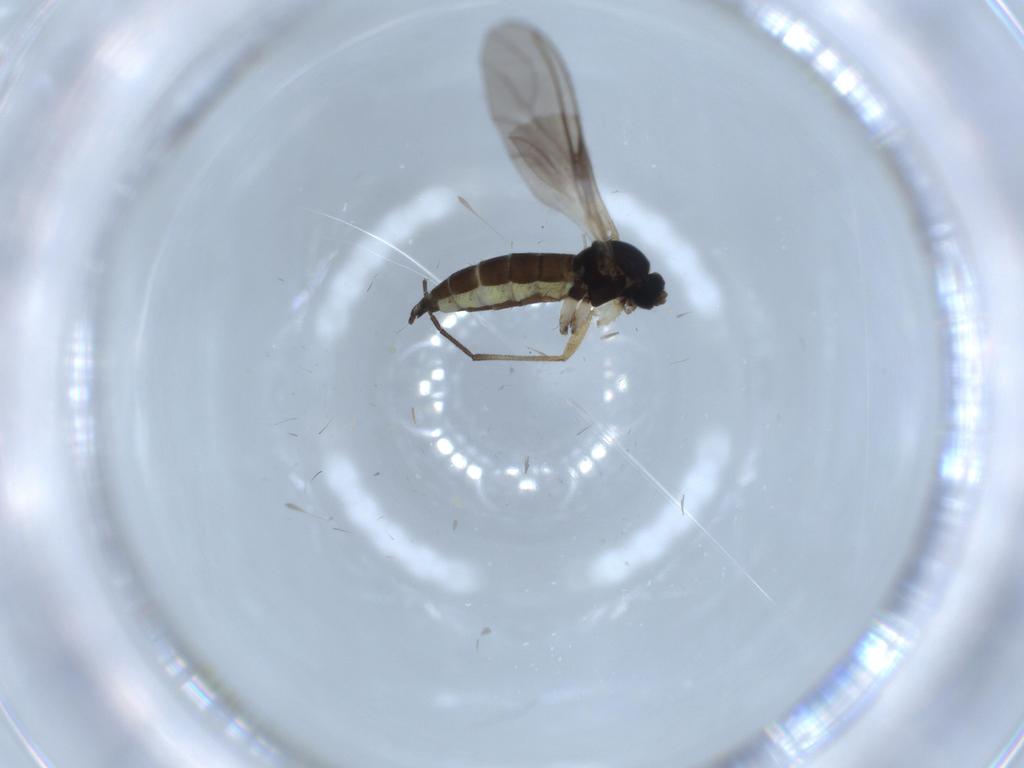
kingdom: Animalia
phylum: Arthropoda
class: Insecta
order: Diptera
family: Sciaridae
